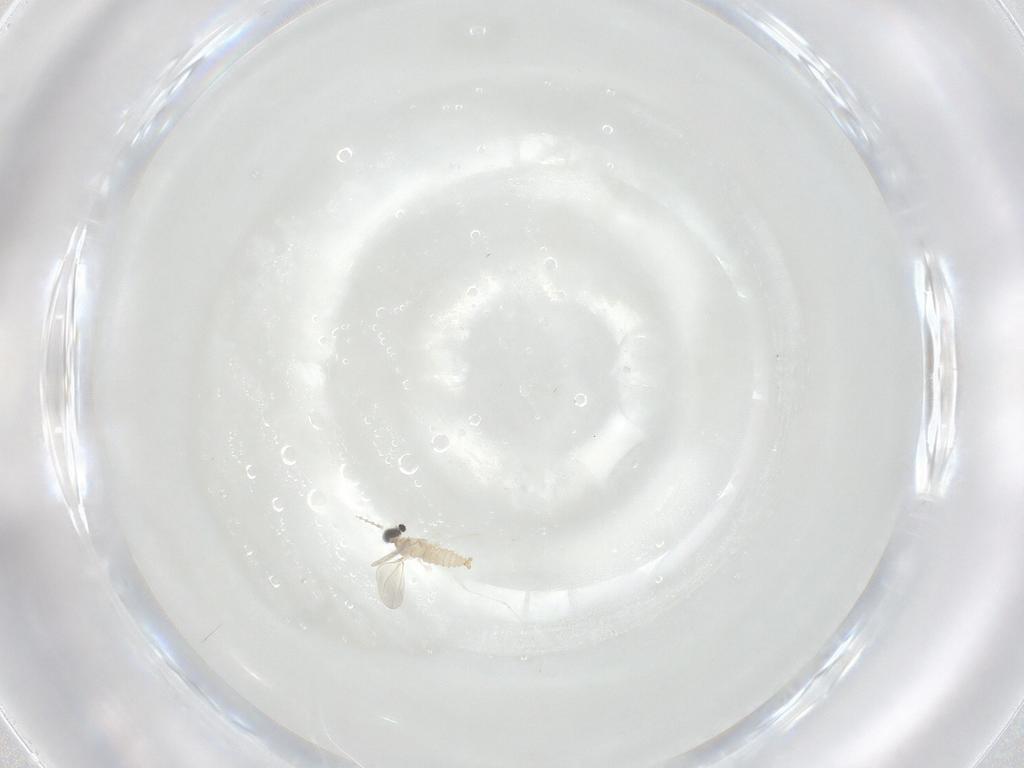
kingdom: Animalia
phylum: Arthropoda
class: Insecta
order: Diptera
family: Cecidomyiidae
